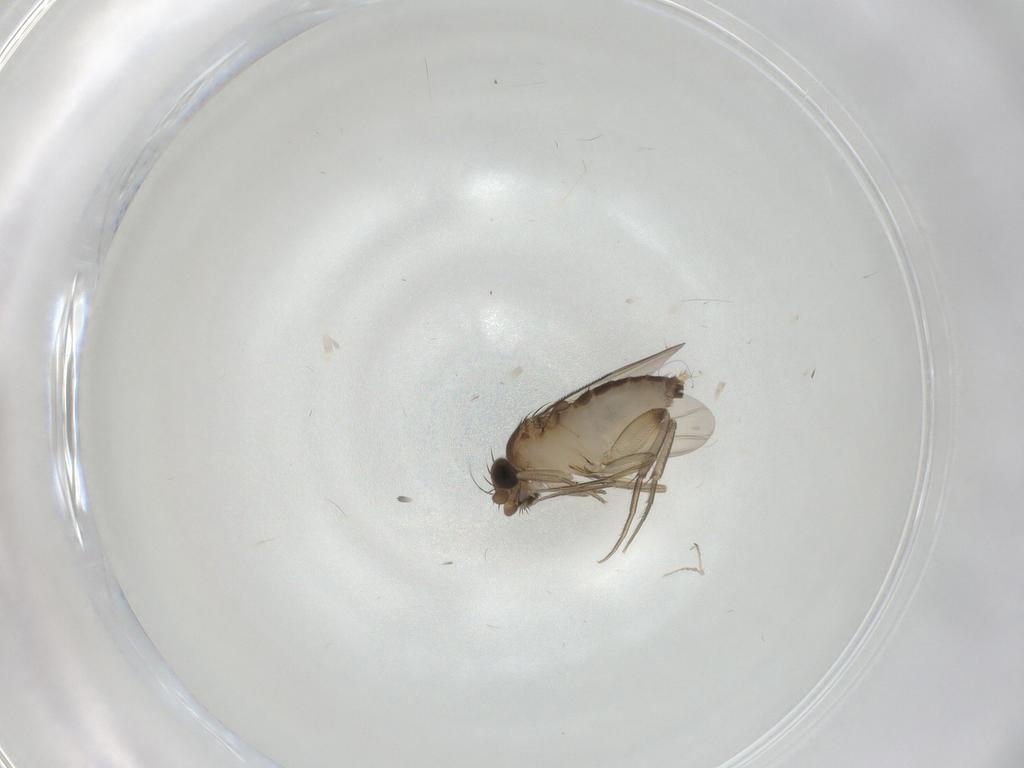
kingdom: Animalia
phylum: Arthropoda
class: Insecta
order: Diptera
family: Phoridae
